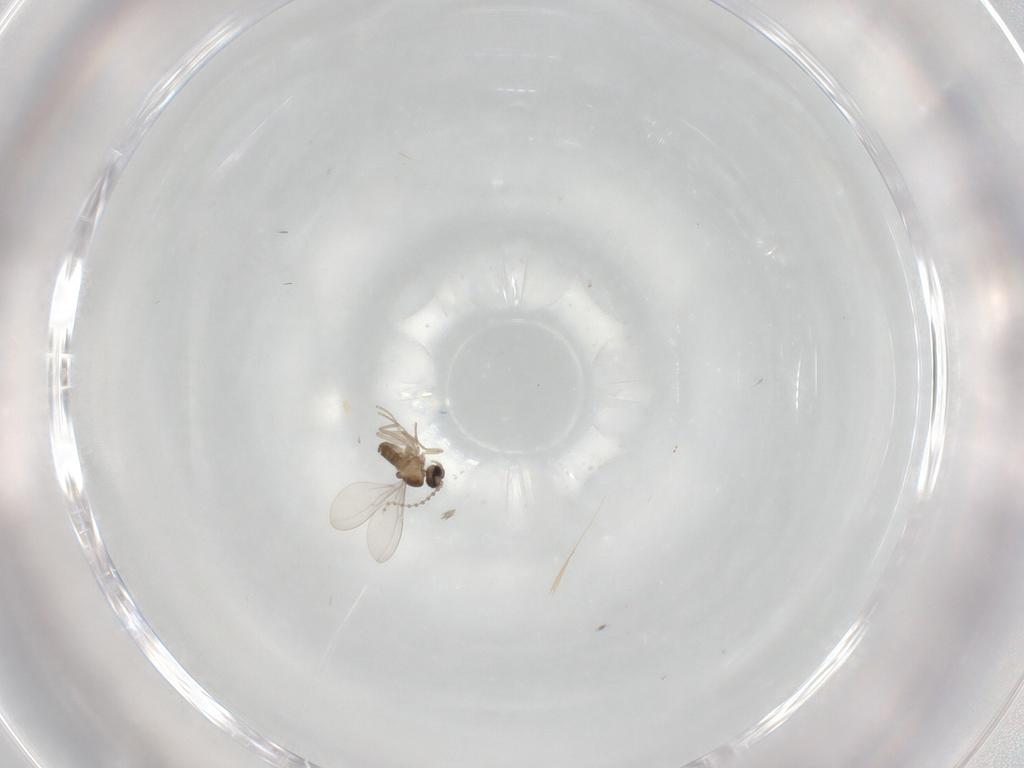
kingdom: Animalia
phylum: Arthropoda
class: Insecta
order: Diptera
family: Cecidomyiidae
